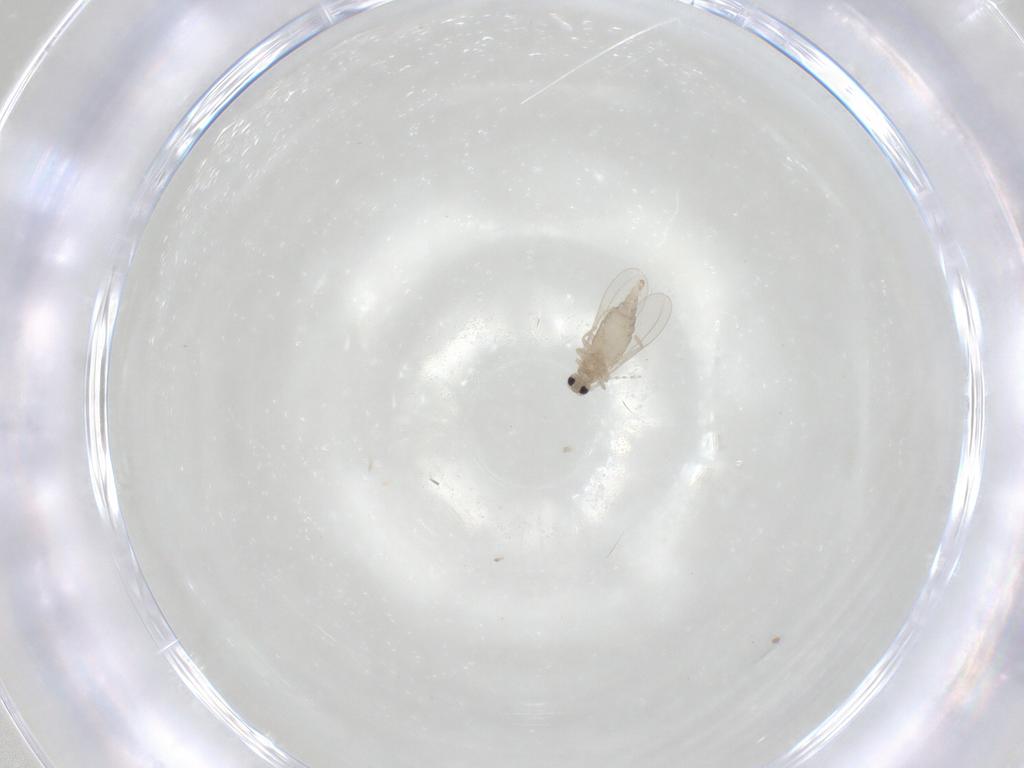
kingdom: Animalia
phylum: Arthropoda
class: Insecta
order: Diptera
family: Cecidomyiidae
